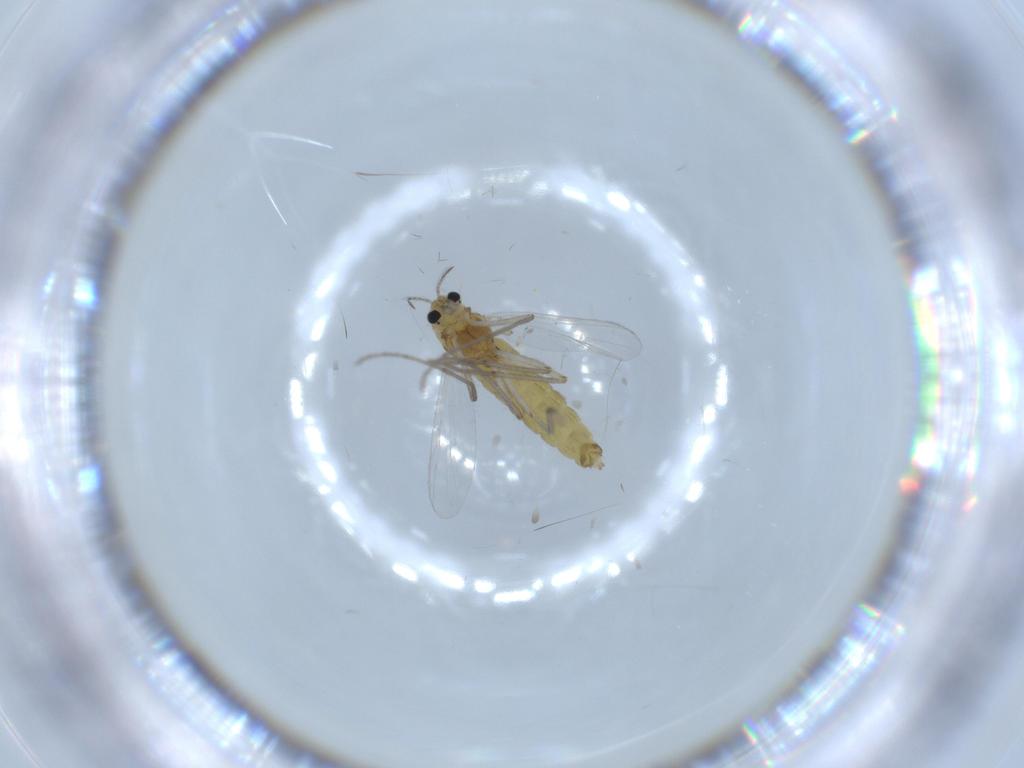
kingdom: Animalia
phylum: Arthropoda
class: Insecta
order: Diptera
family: Chironomidae
